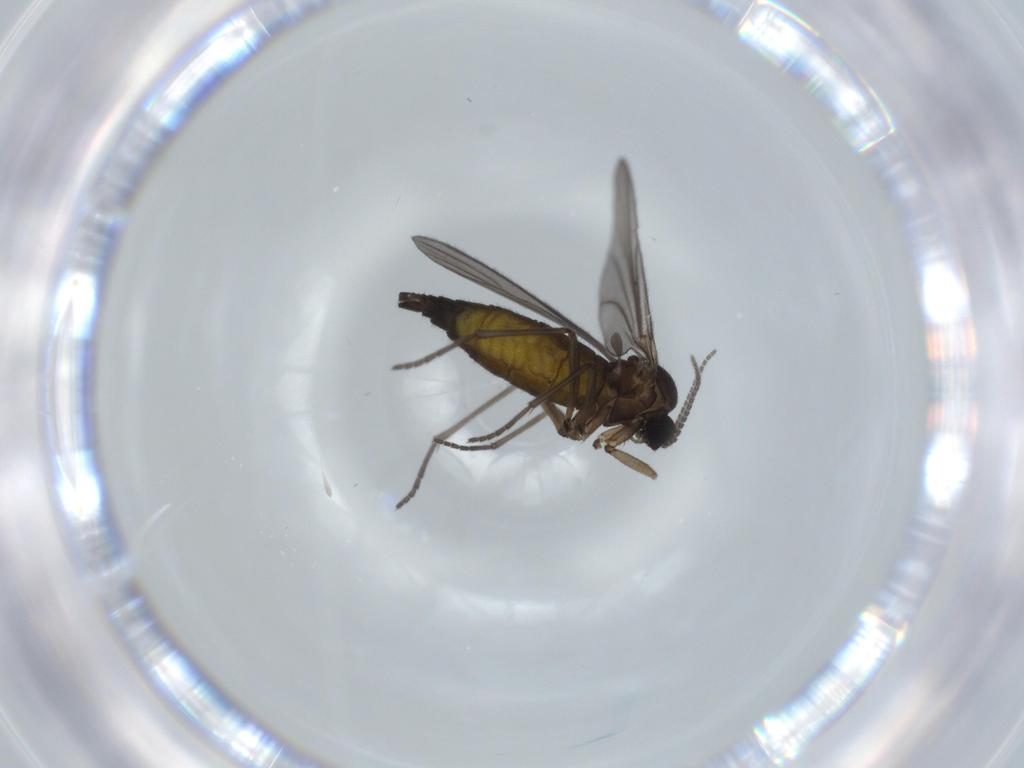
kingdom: Animalia
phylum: Arthropoda
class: Insecta
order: Diptera
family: Sciaridae
